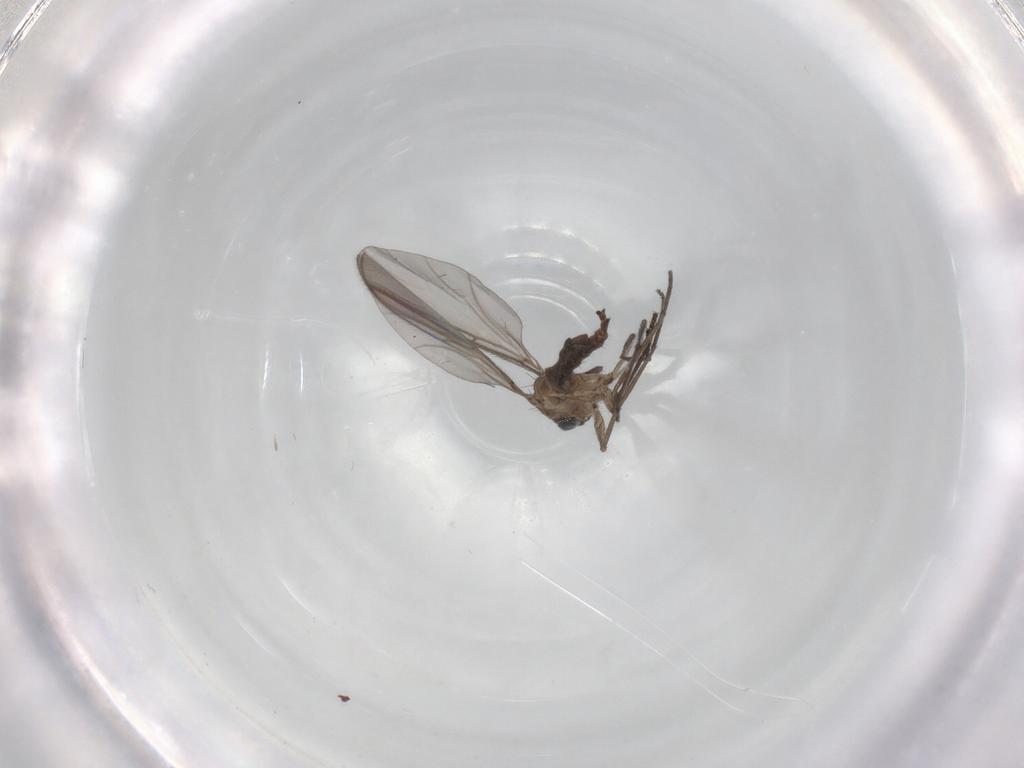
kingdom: Animalia
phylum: Arthropoda
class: Insecta
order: Diptera
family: Sciaridae
